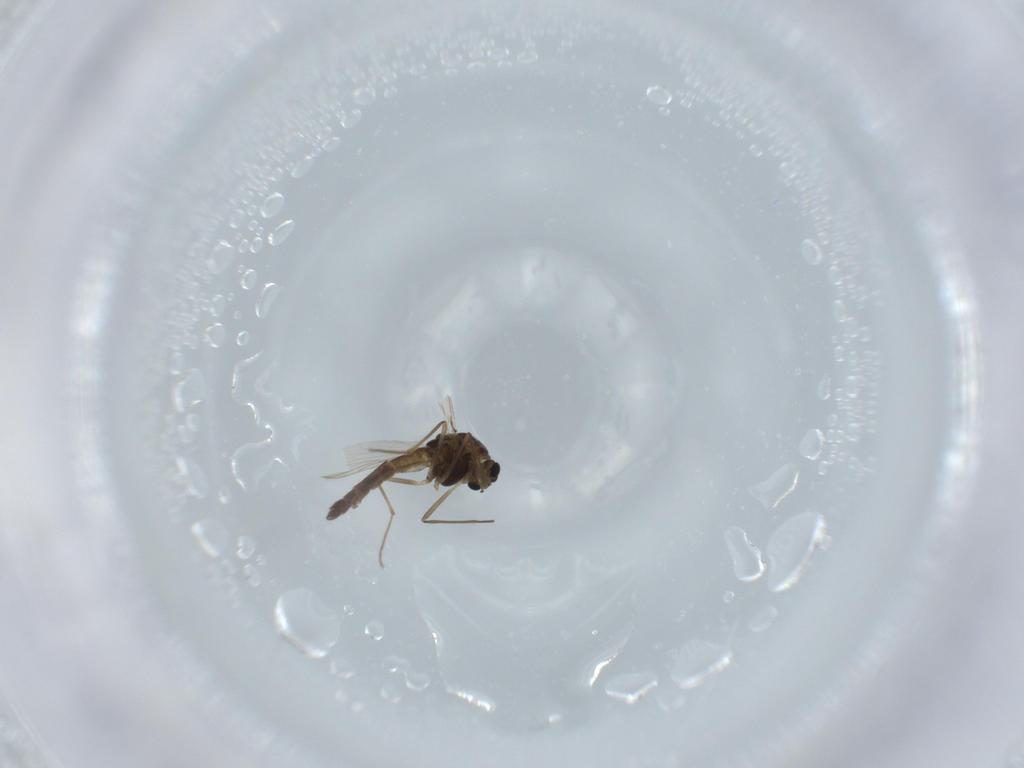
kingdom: Animalia
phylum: Arthropoda
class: Insecta
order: Diptera
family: Chironomidae
